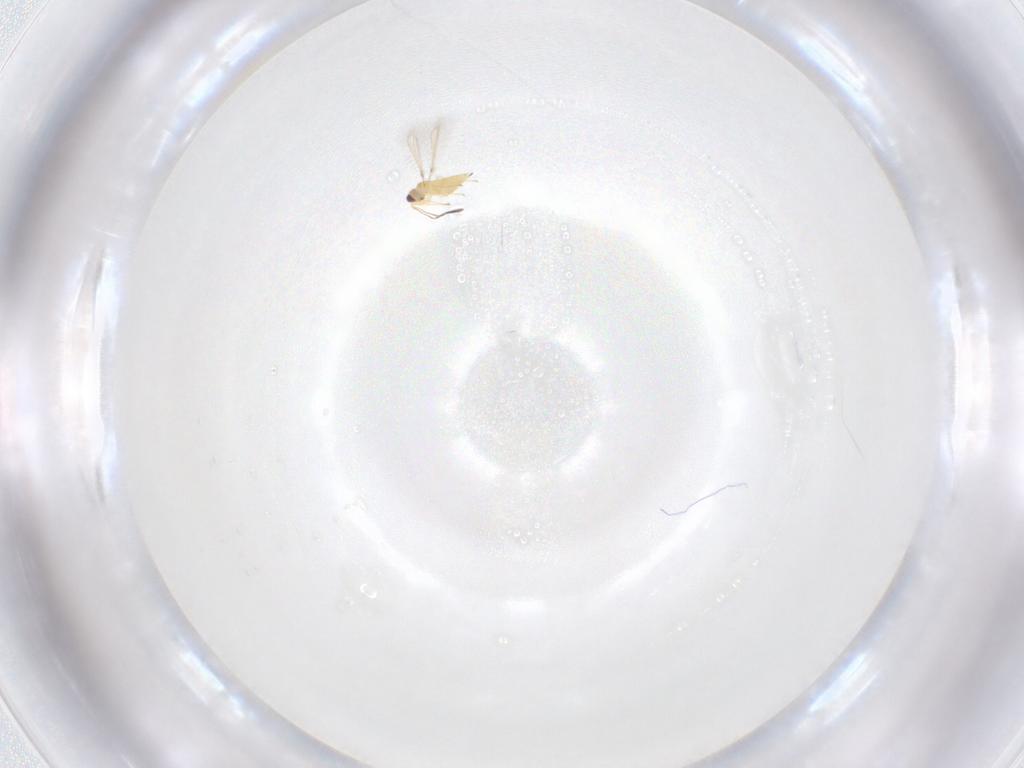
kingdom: Animalia
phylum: Arthropoda
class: Insecta
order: Hymenoptera
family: Mymaridae
